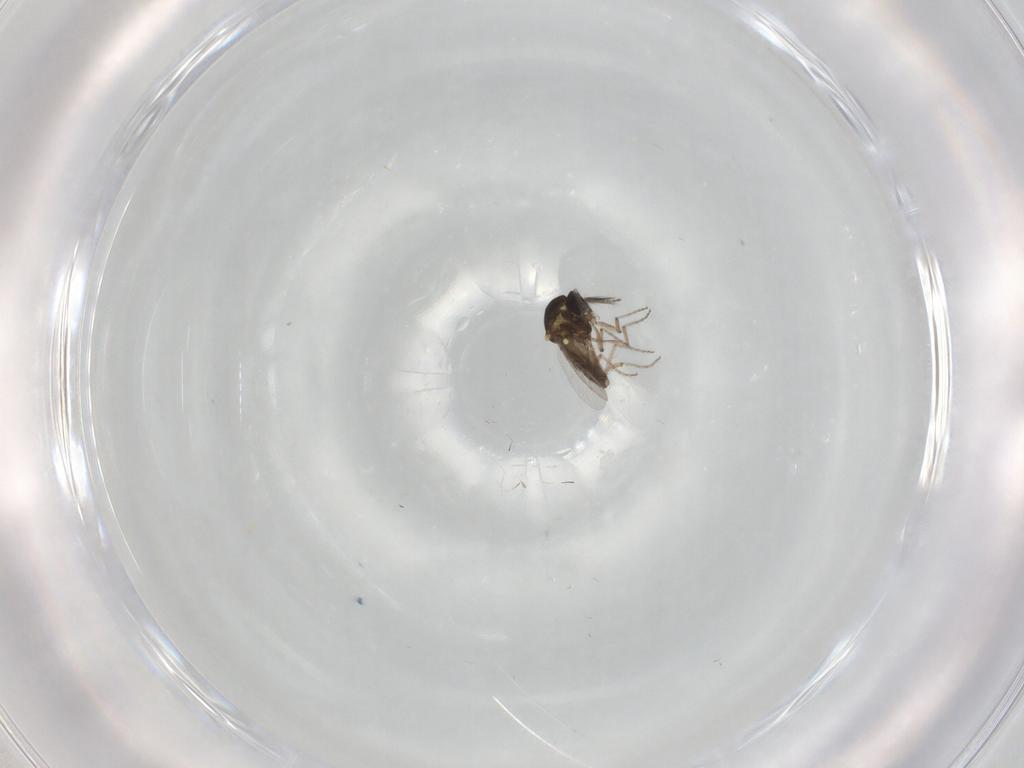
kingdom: Animalia
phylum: Arthropoda
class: Insecta
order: Diptera
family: Ceratopogonidae
